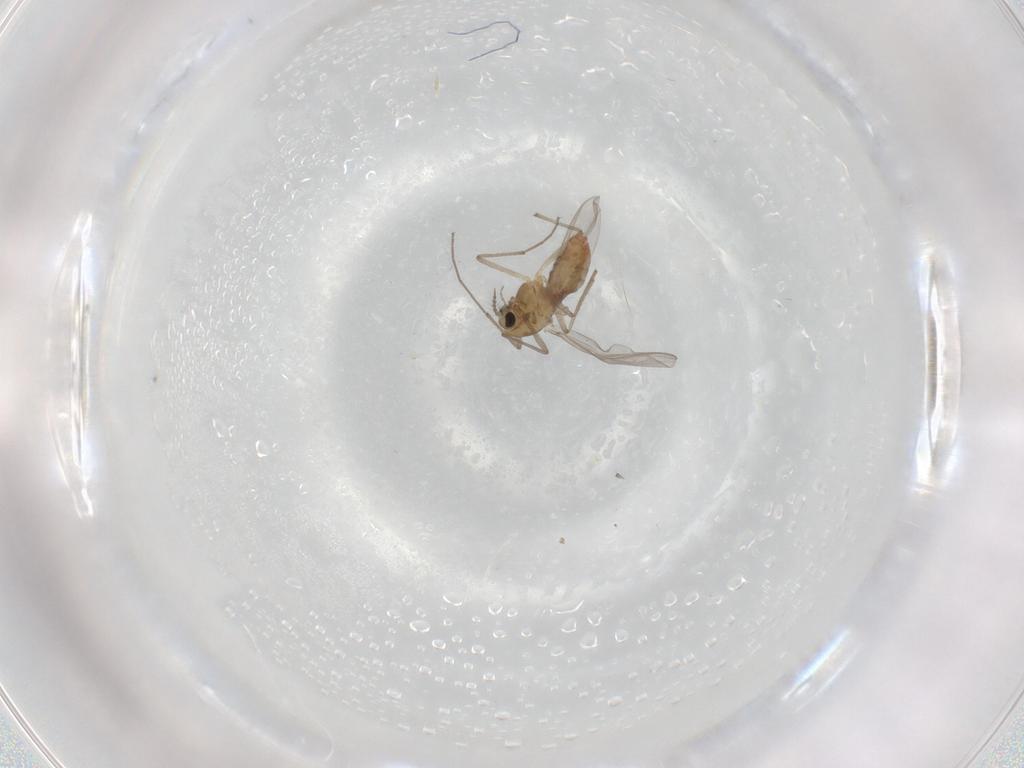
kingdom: Animalia
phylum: Arthropoda
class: Insecta
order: Diptera
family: Chironomidae
